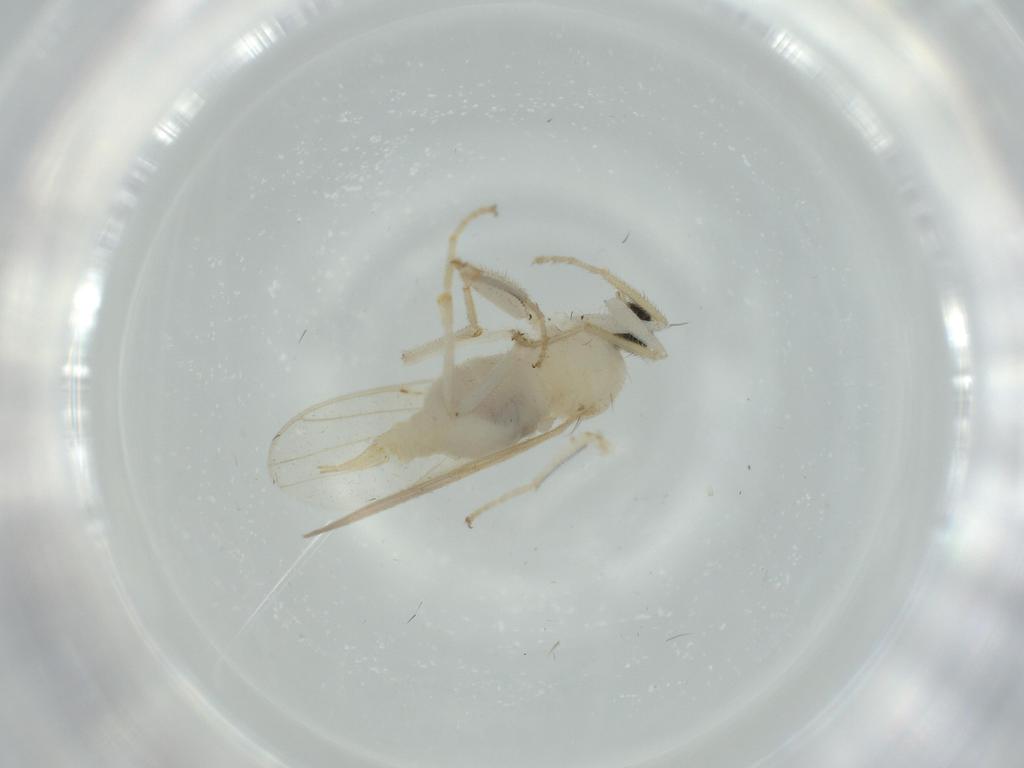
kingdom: Animalia
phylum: Arthropoda
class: Insecta
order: Diptera
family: Hybotidae
